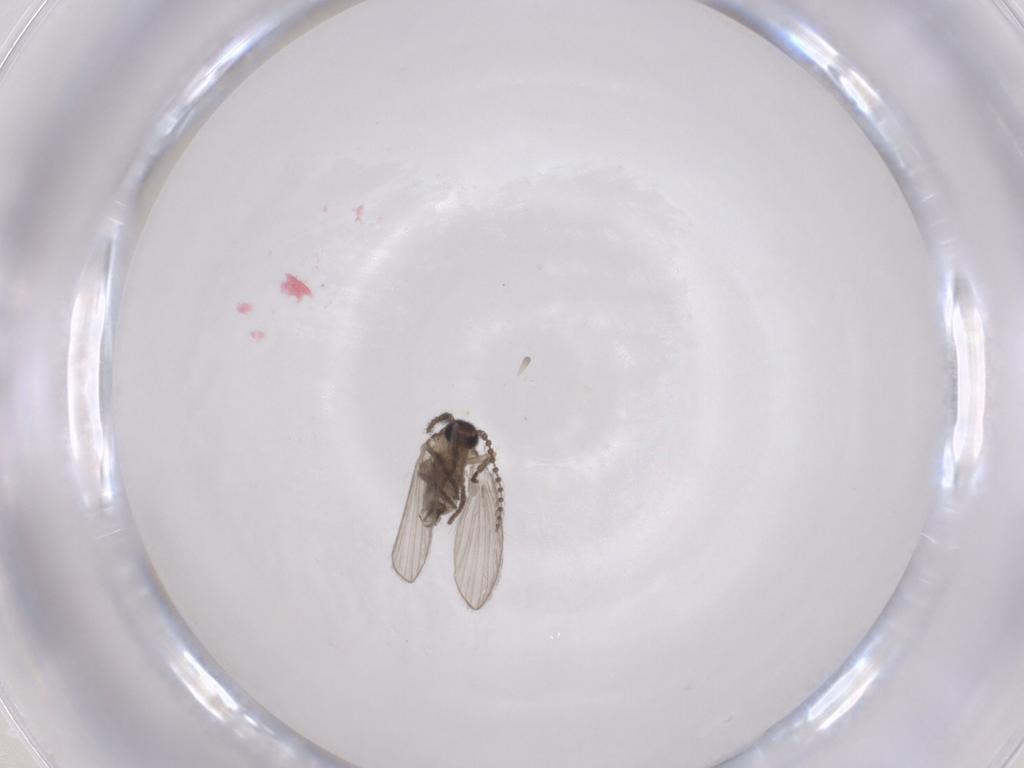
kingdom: Animalia
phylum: Arthropoda
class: Insecta
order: Diptera
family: Psychodidae
